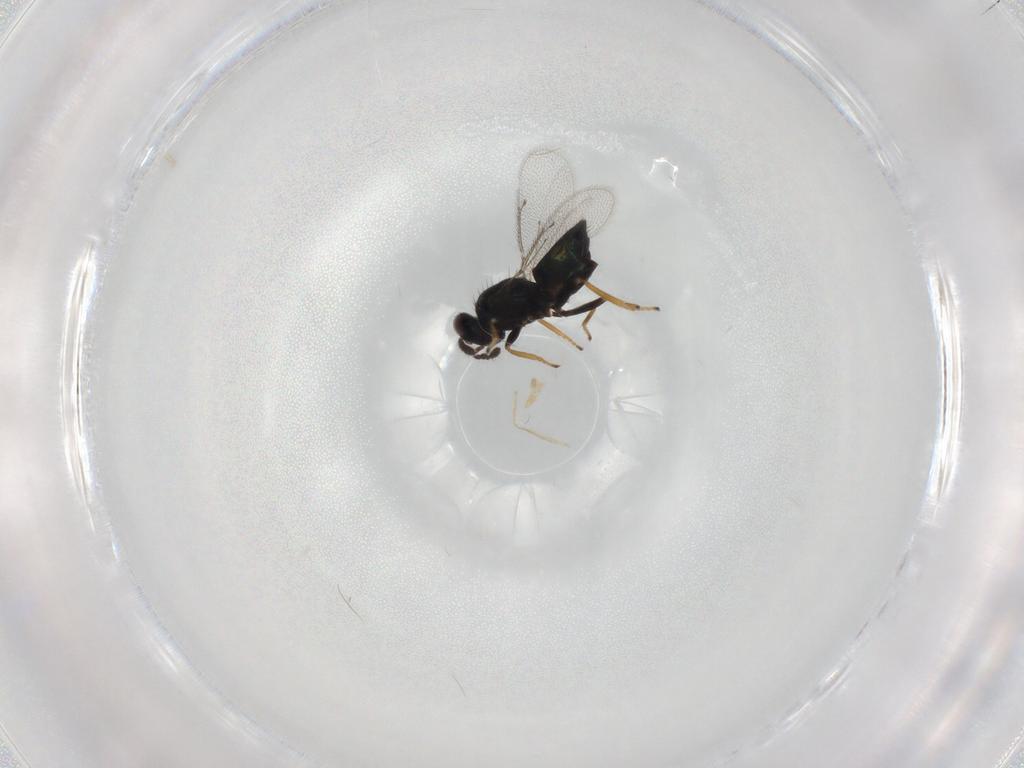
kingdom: Animalia
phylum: Arthropoda
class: Insecta
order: Hymenoptera
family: Eulophidae
